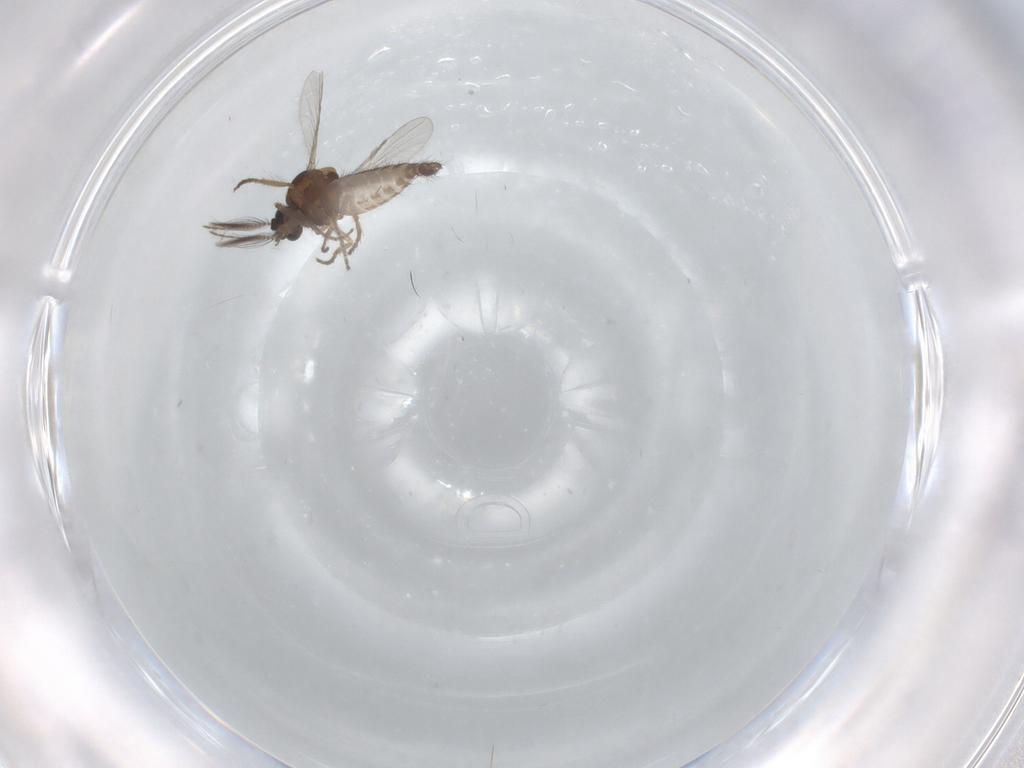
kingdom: Animalia
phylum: Arthropoda
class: Insecta
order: Diptera
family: Ceratopogonidae
